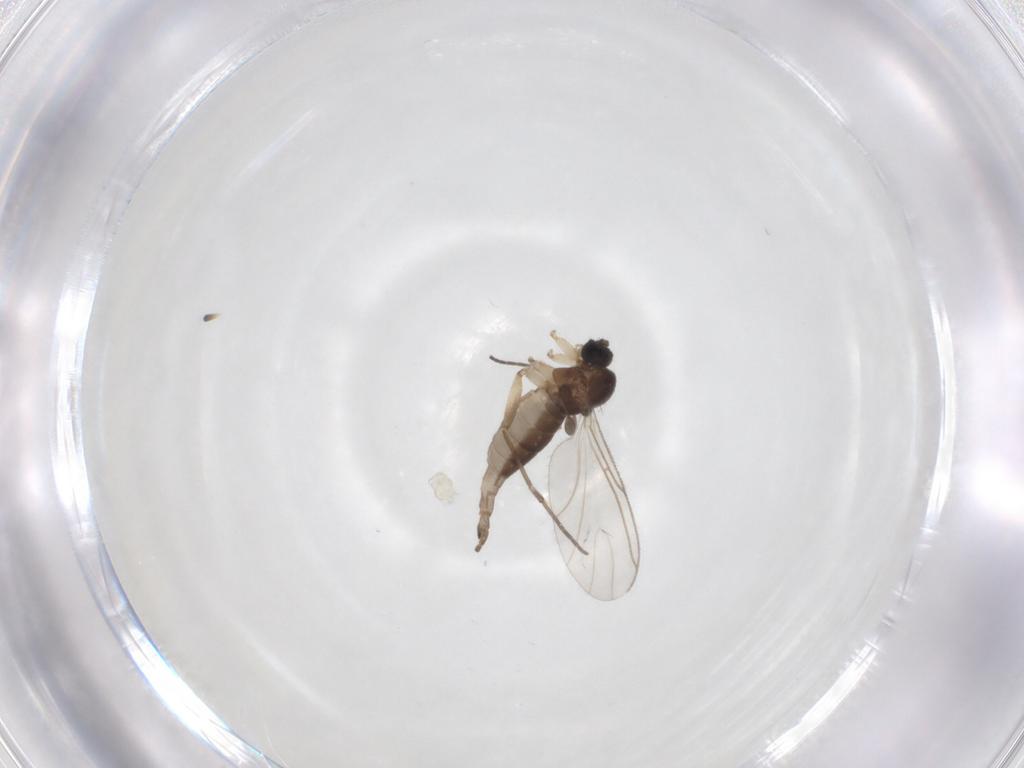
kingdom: Animalia
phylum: Arthropoda
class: Insecta
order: Diptera
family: Sciaridae
